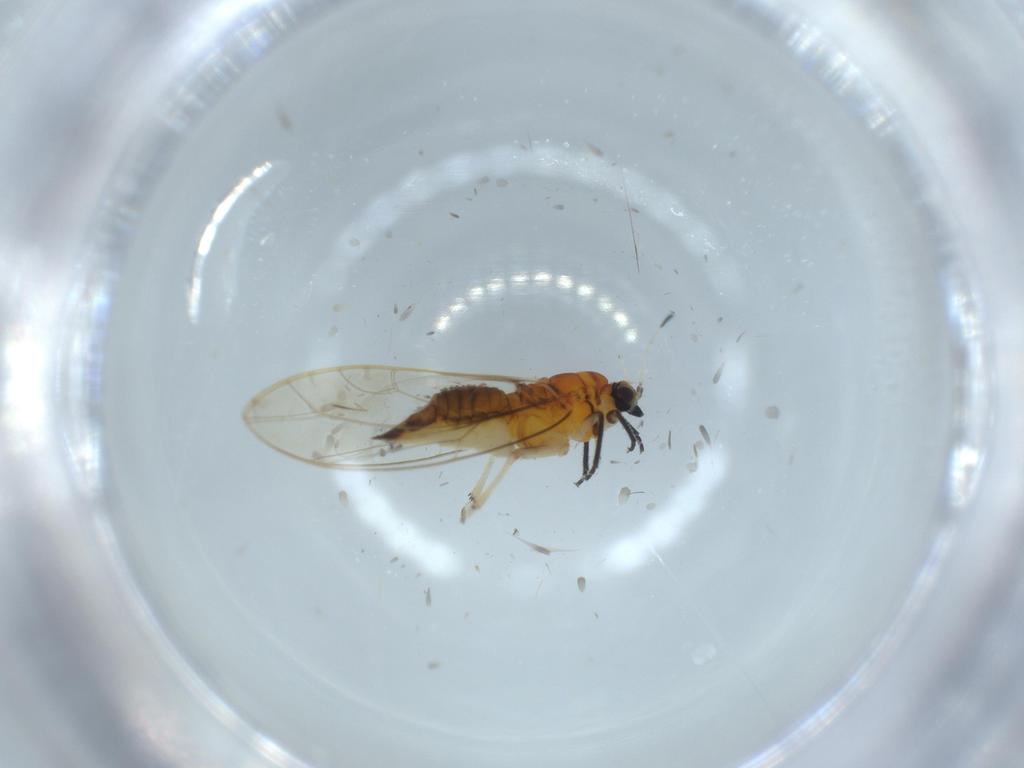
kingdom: Animalia
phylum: Arthropoda
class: Insecta
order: Hemiptera
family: Triozidae
